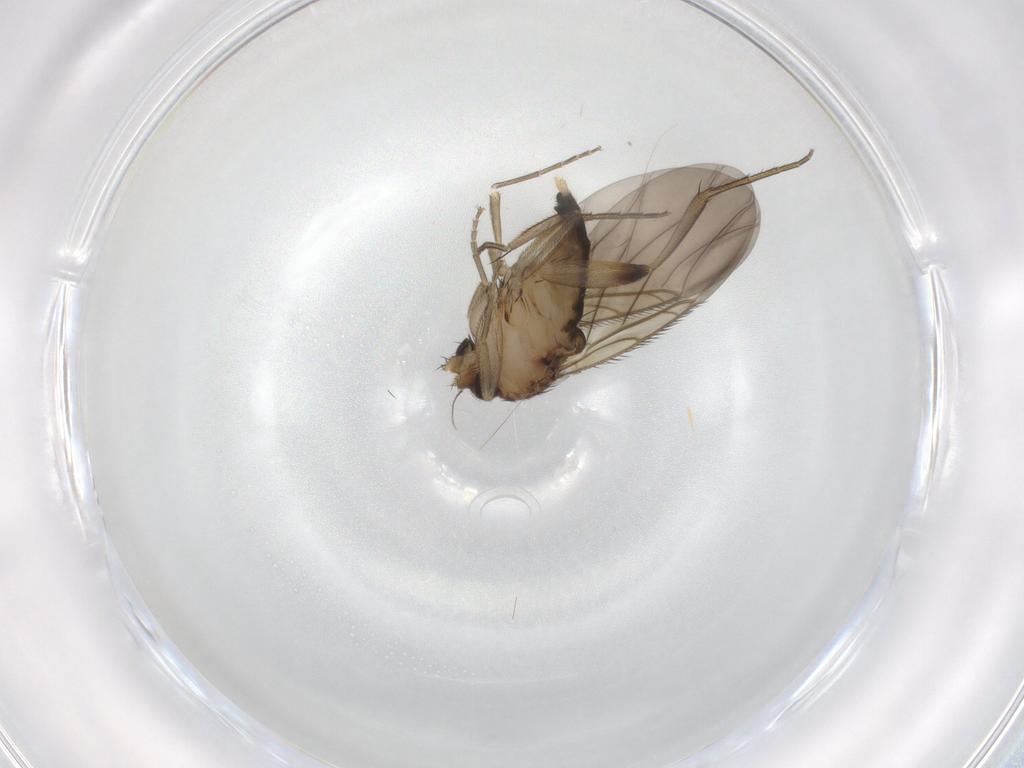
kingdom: Animalia
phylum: Arthropoda
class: Insecta
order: Diptera
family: Phoridae
